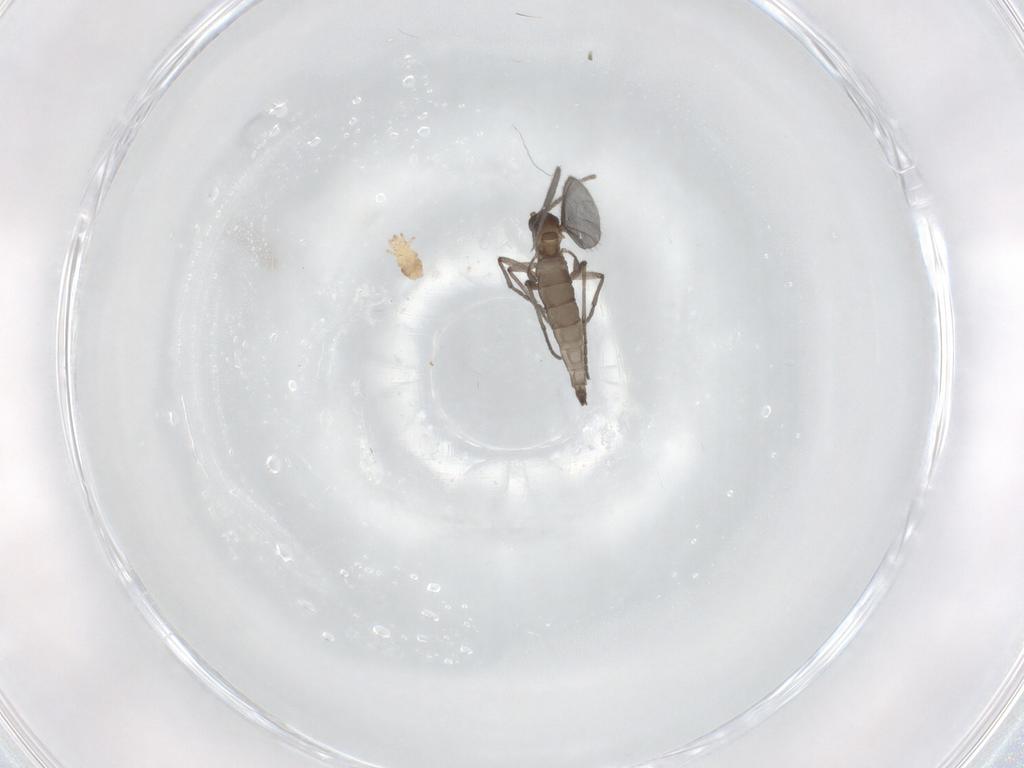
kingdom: Animalia
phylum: Arthropoda
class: Insecta
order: Diptera
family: Sciaridae
